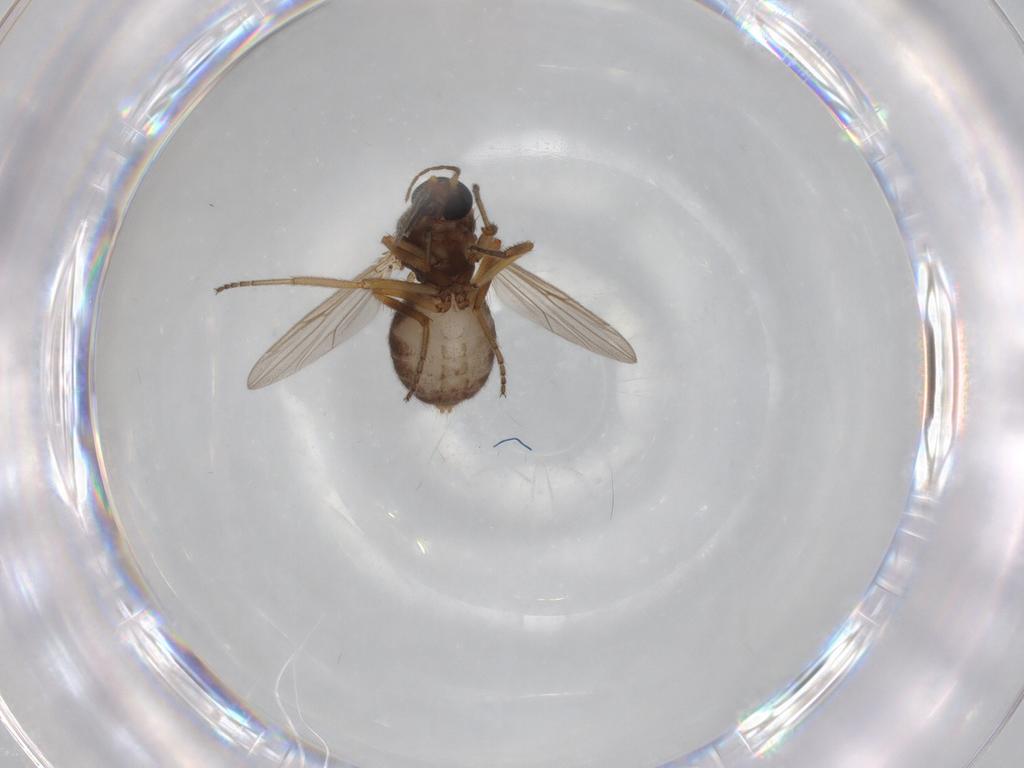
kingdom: Animalia
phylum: Arthropoda
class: Insecta
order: Diptera
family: Ceratopogonidae
